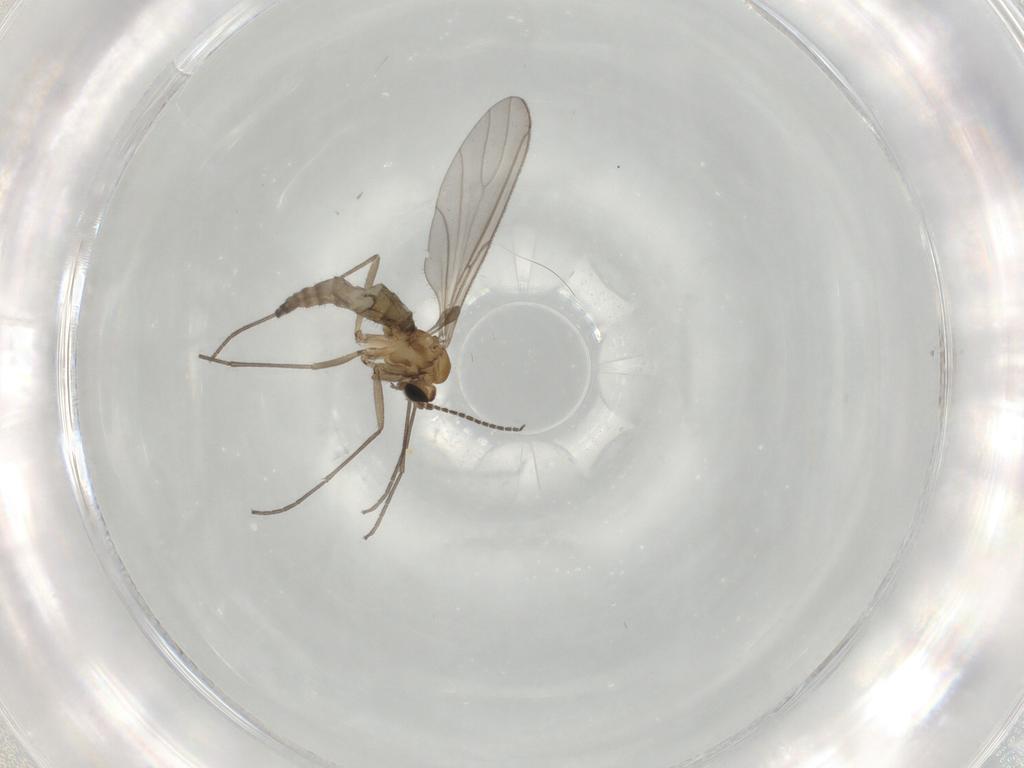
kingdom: Animalia
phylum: Arthropoda
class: Insecta
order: Diptera
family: Sciaridae
